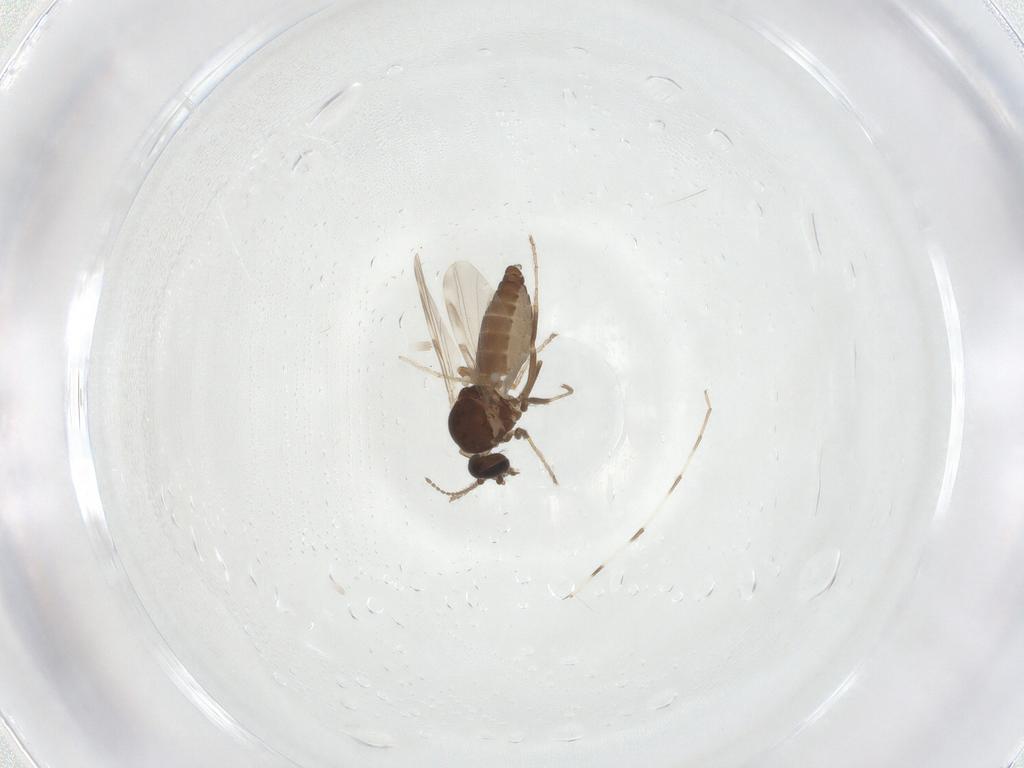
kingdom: Animalia
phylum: Arthropoda
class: Insecta
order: Diptera
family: Ceratopogonidae
